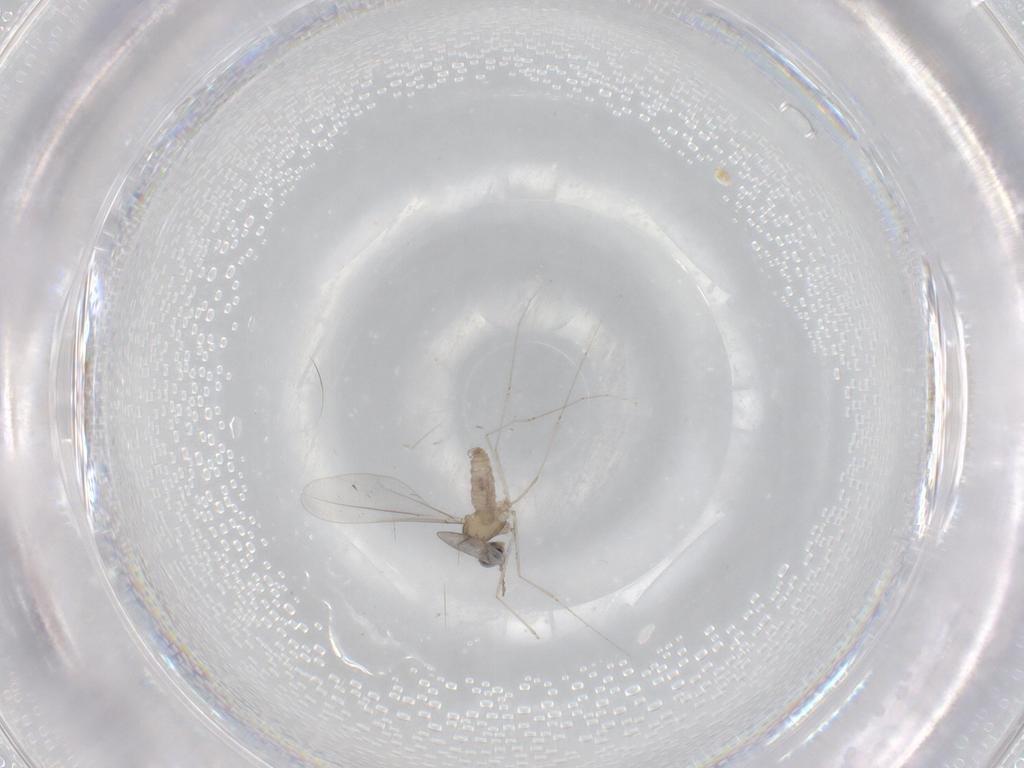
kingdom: Animalia
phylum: Arthropoda
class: Insecta
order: Diptera
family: Cecidomyiidae
